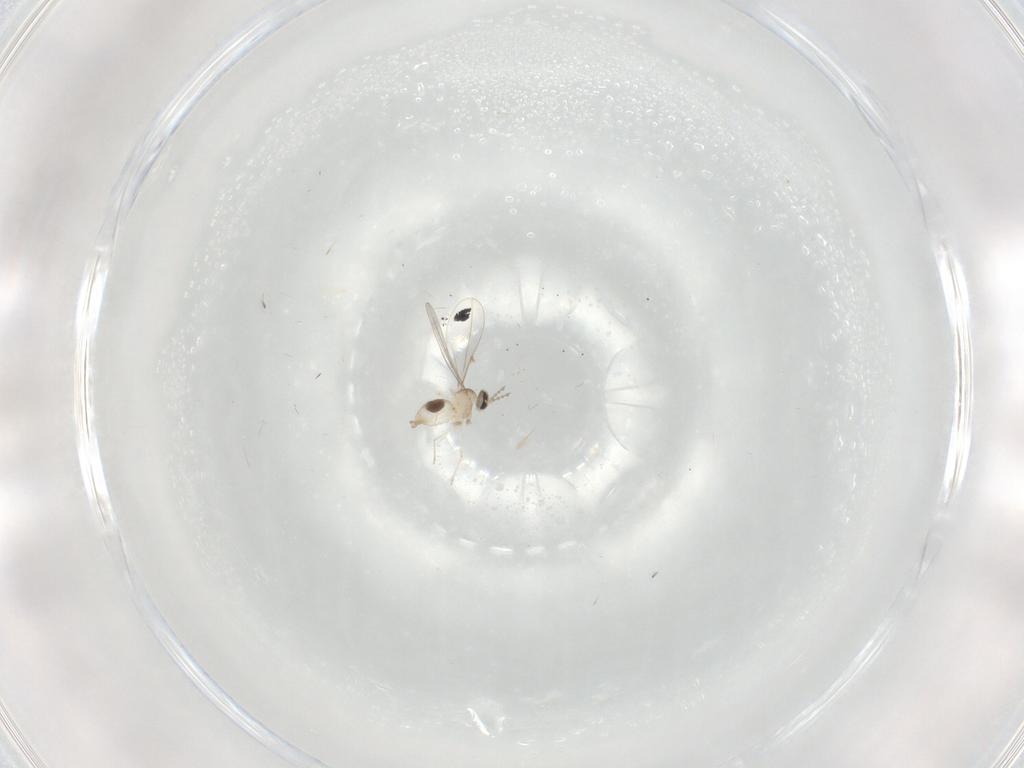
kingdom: Animalia
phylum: Arthropoda
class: Insecta
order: Diptera
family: Cecidomyiidae
